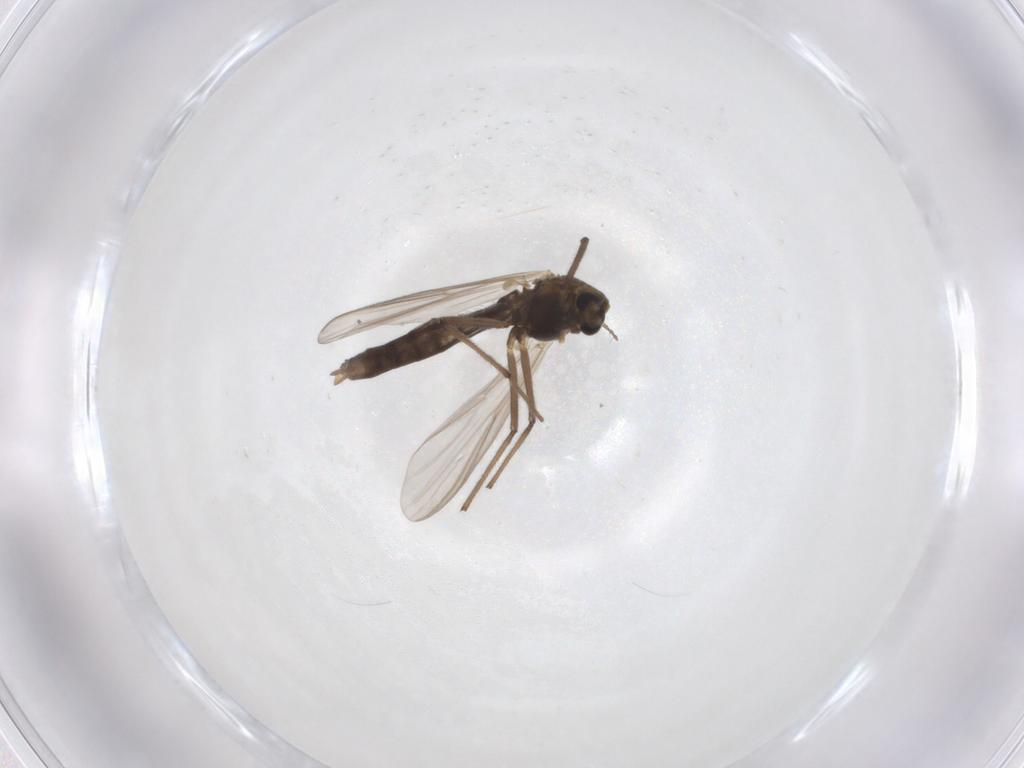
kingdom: Animalia
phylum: Arthropoda
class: Insecta
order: Diptera
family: Chironomidae
